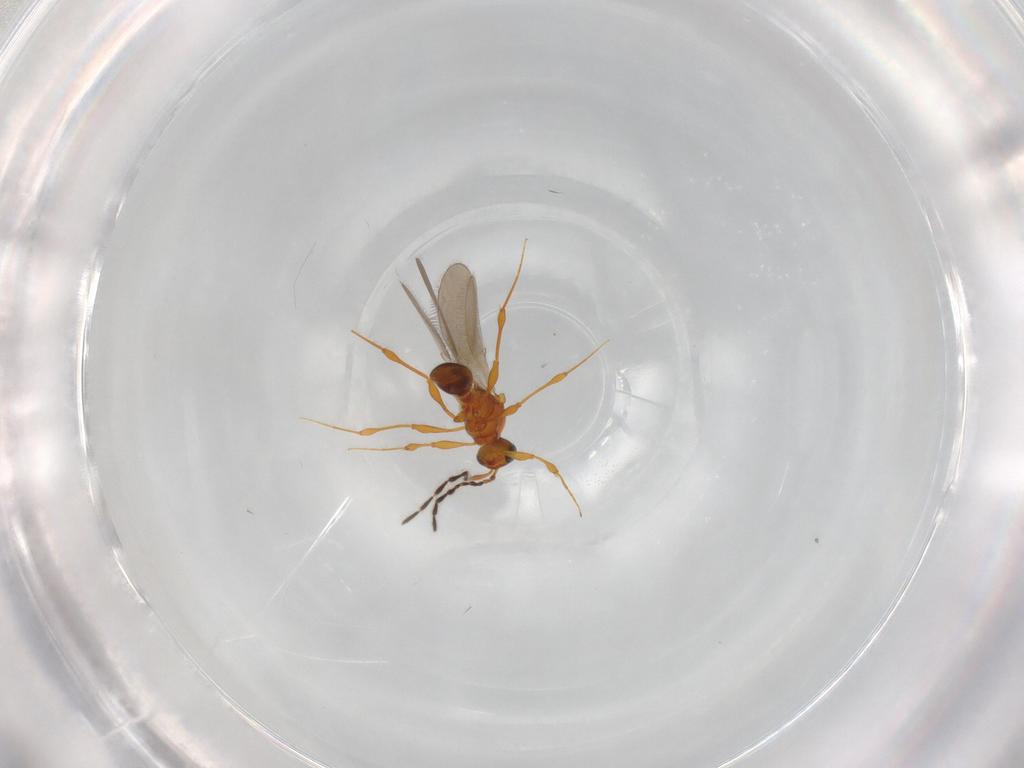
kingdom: Animalia
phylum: Arthropoda
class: Insecta
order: Hymenoptera
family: Platygastridae
